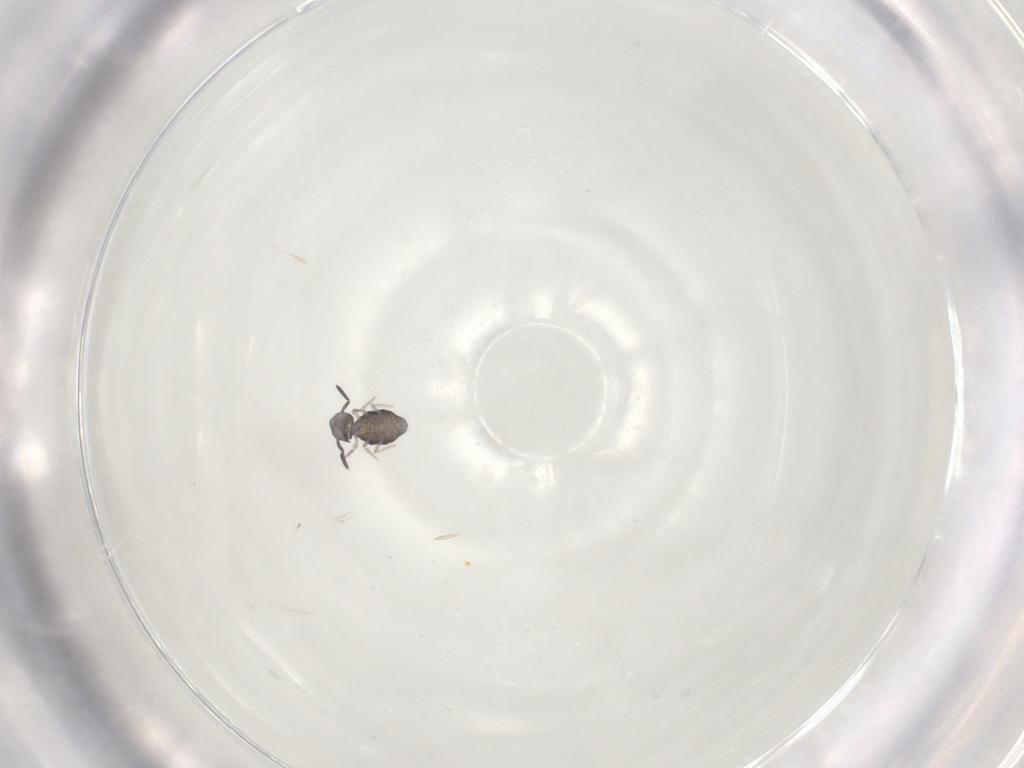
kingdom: Animalia
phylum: Arthropoda
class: Collembola
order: Symphypleona
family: Katiannidae
